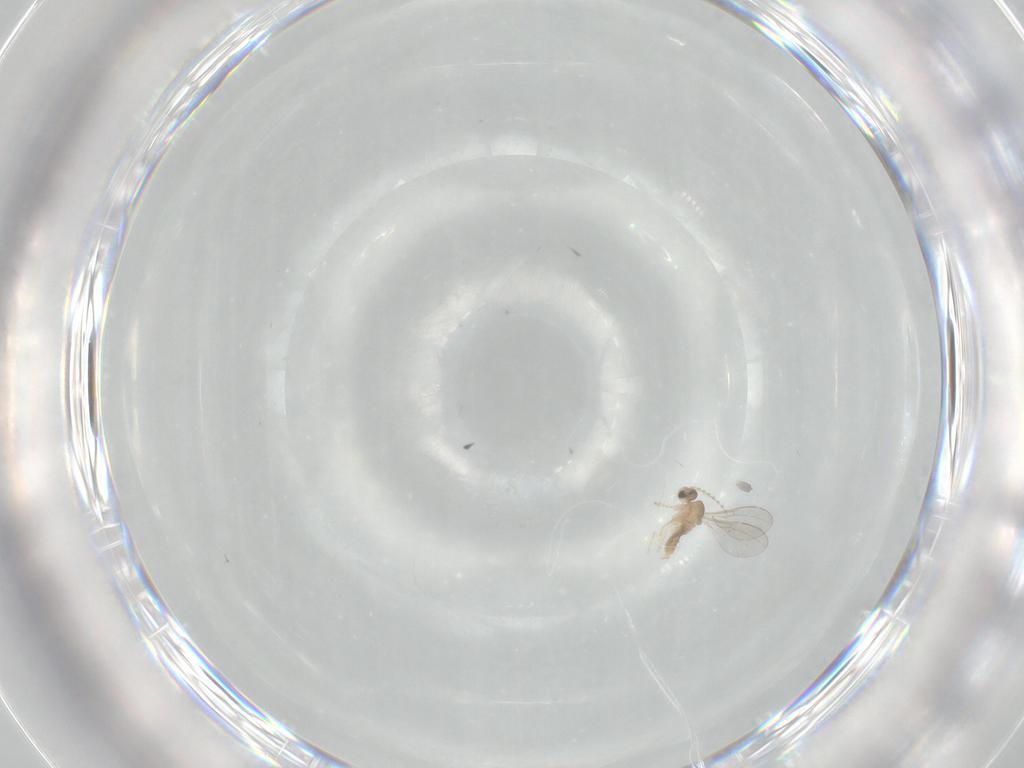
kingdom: Animalia
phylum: Arthropoda
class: Insecta
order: Diptera
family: Cecidomyiidae
